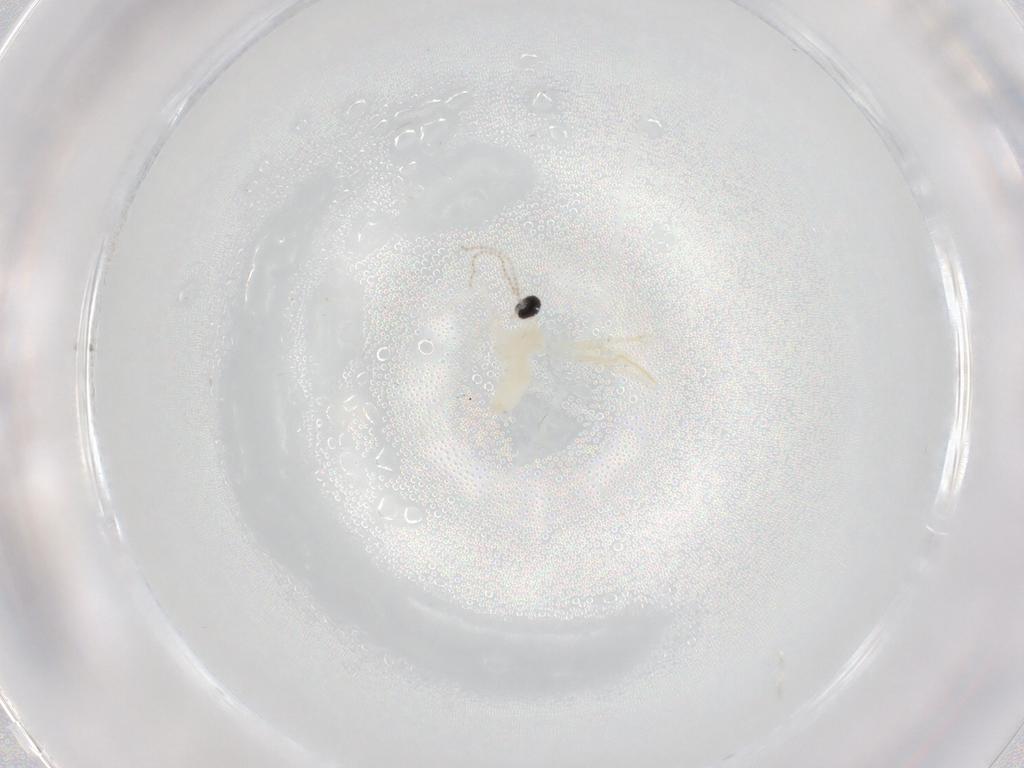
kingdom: Animalia
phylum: Arthropoda
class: Insecta
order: Diptera
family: Cecidomyiidae
